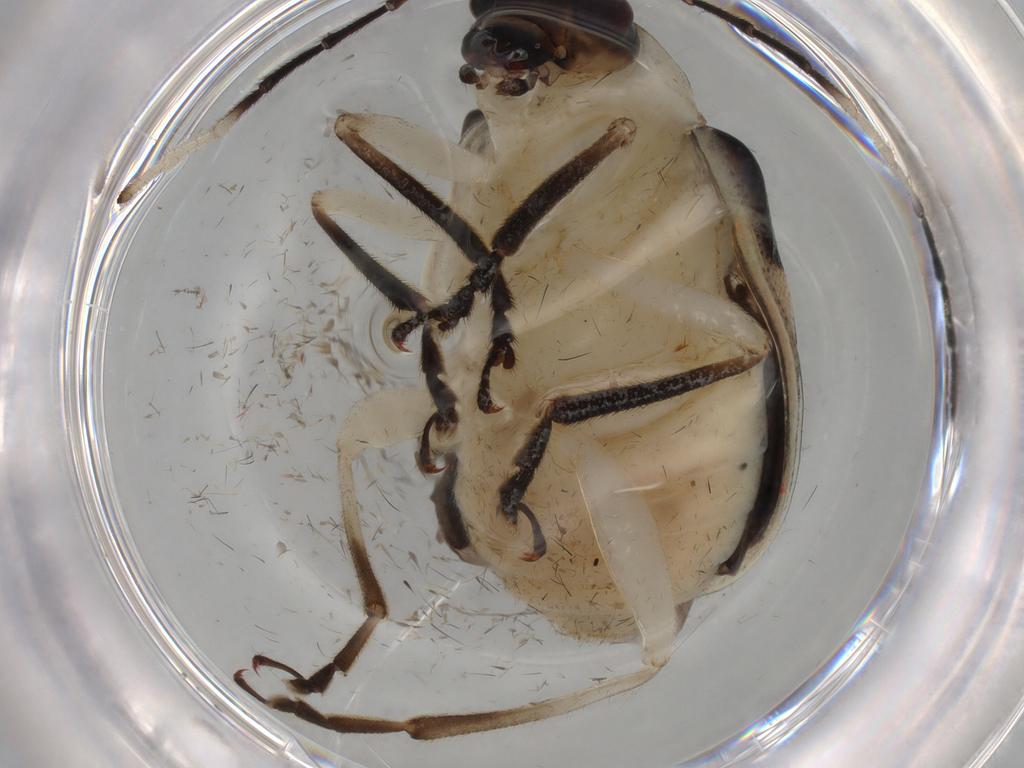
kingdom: Animalia
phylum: Arthropoda
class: Insecta
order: Coleoptera
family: Chrysomelidae
